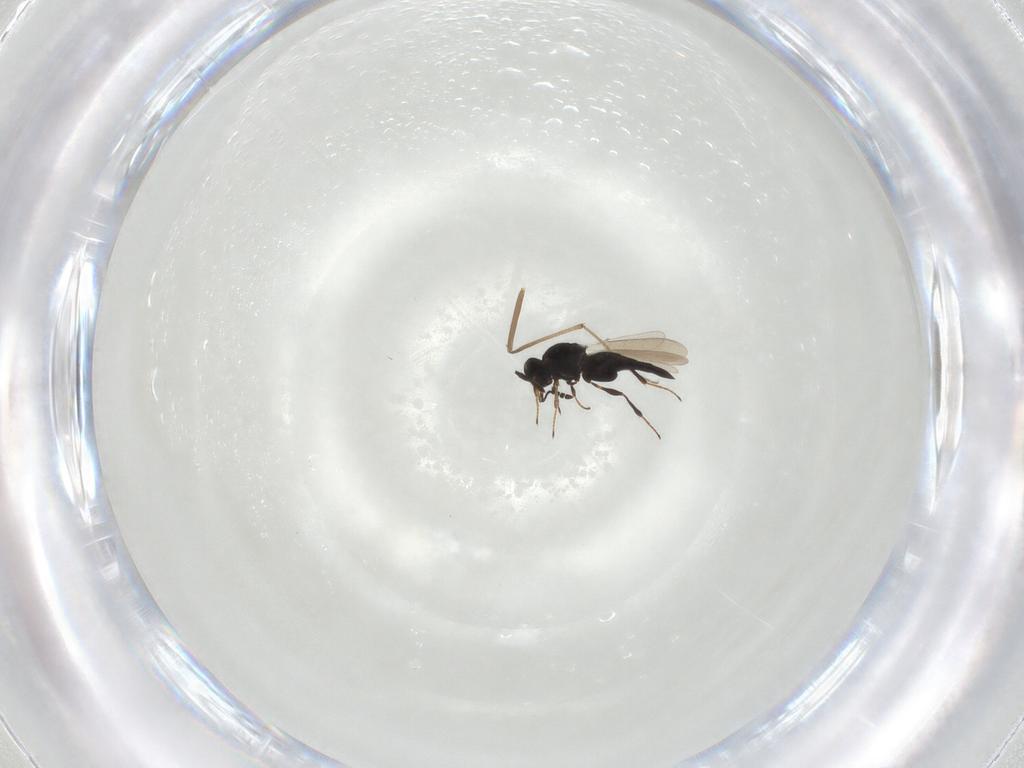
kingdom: Animalia
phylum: Arthropoda
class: Insecta
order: Hymenoptera
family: Platygastridae
